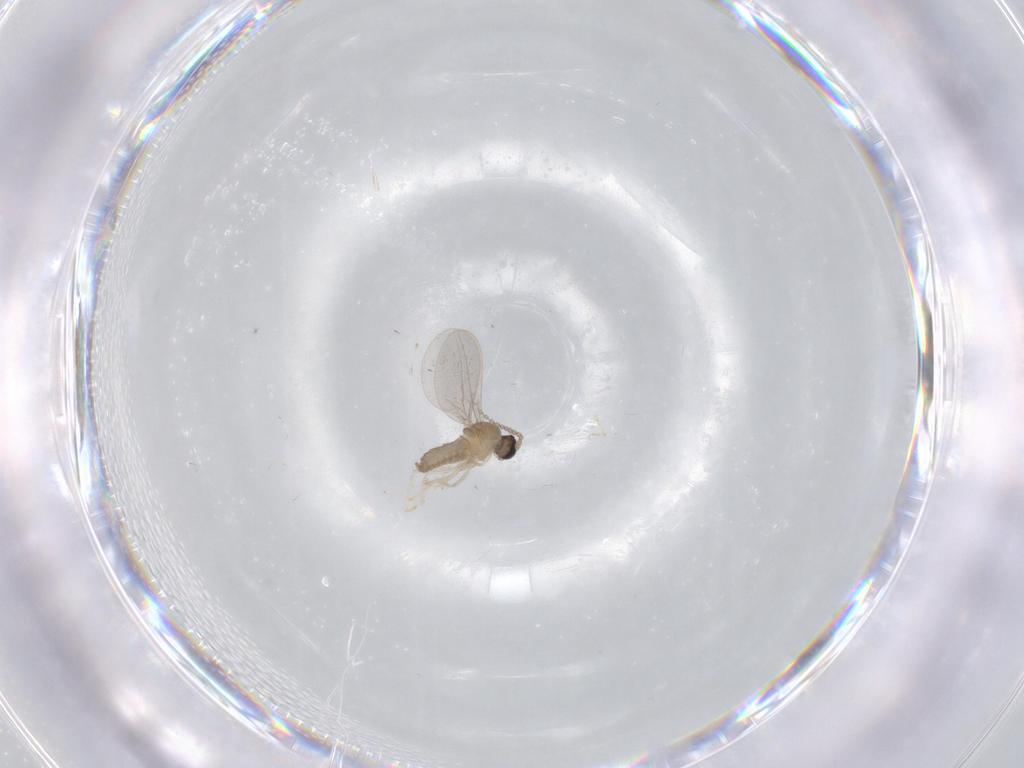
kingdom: Animalia
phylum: Arthropoda
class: Insecta
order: Diptera
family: Cecidomyiidae
